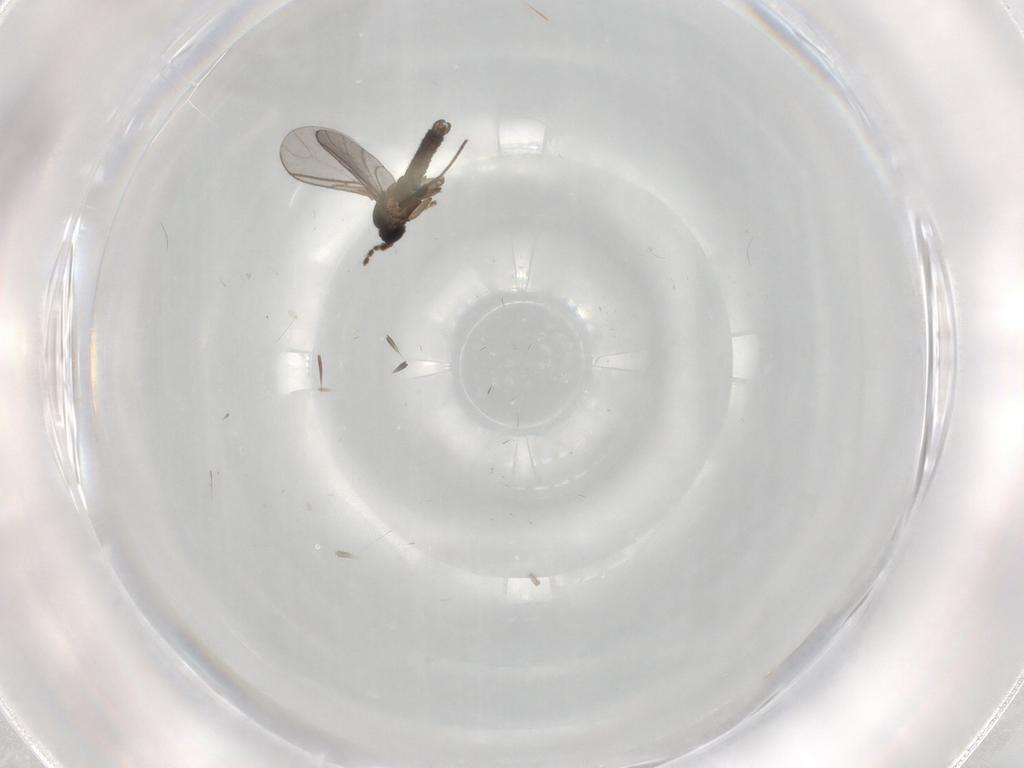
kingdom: Animalia
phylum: Arthropoda
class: Insecta
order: Diptera
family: Sciaridae
